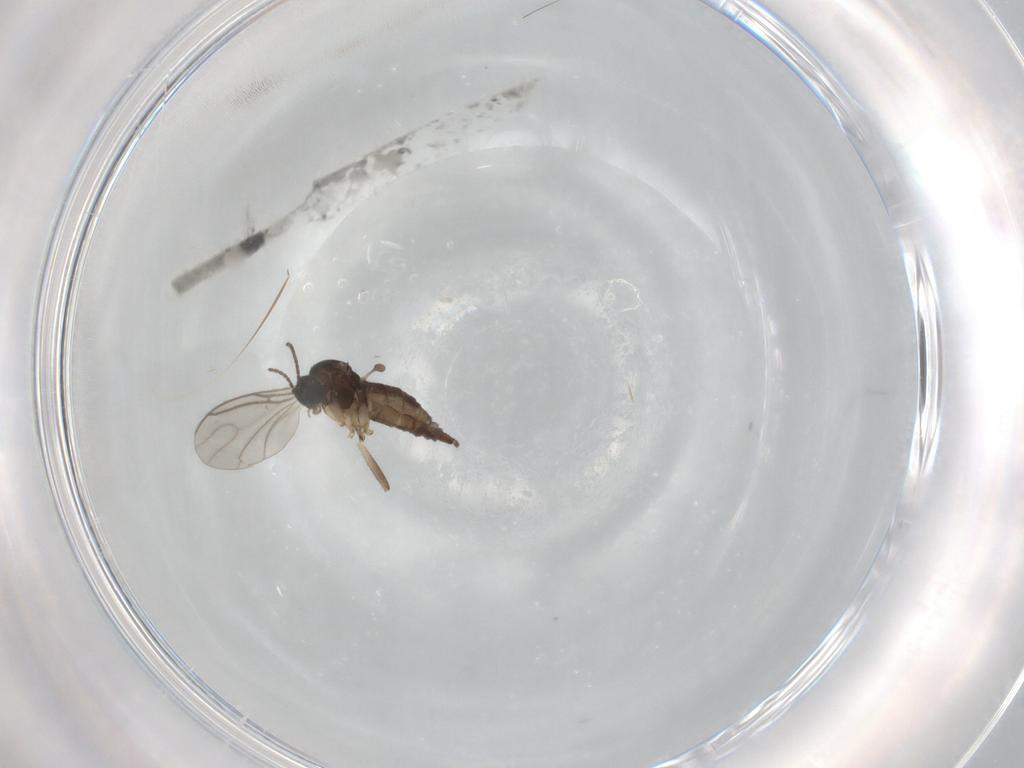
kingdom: Animalia
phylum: Arthropoda
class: Insecta
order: Diptera
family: Sciaridae
